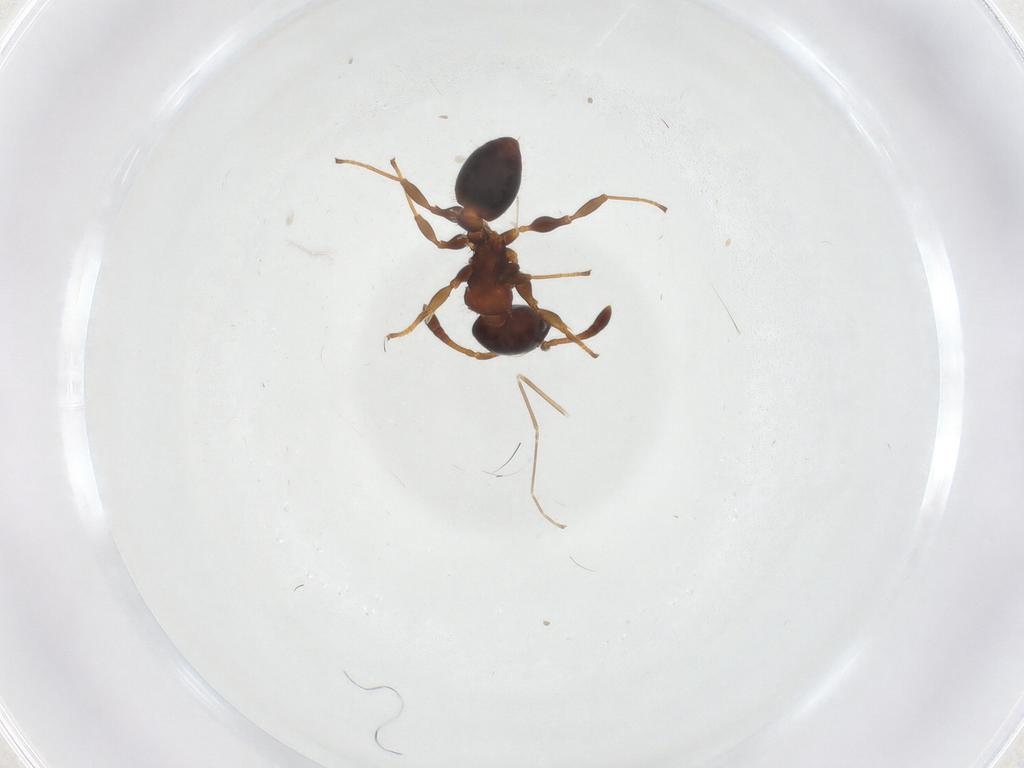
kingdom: Animalia
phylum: Arthropoda
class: Insecta
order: Hymenoptera
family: Formicidae
